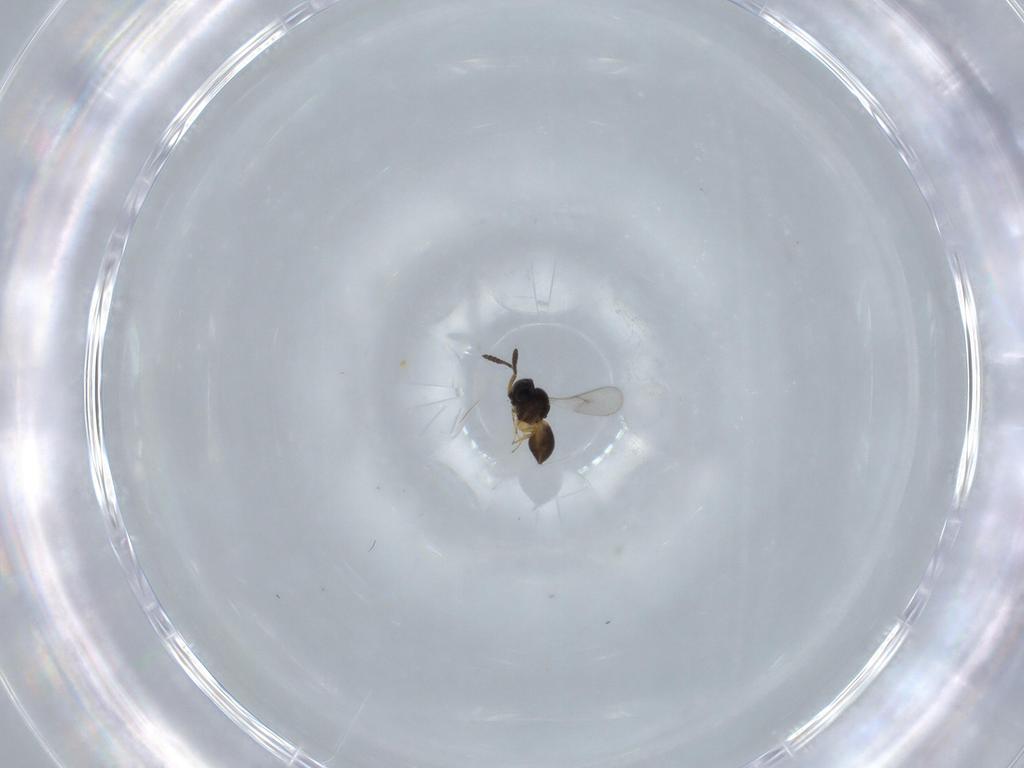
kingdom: Animalia
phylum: Arthropoda
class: Insecta
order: Hymenoptera
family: Scelionidae
